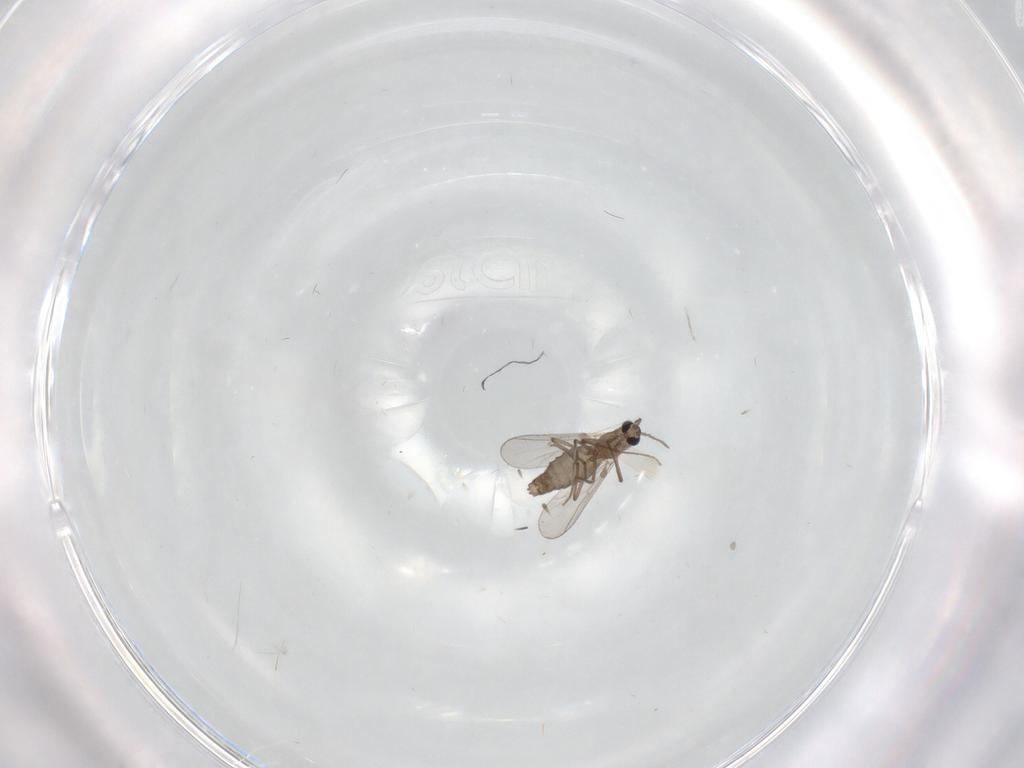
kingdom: Animalia
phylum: Arthropoda
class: Insecta
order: Diptera
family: Chironomidae
